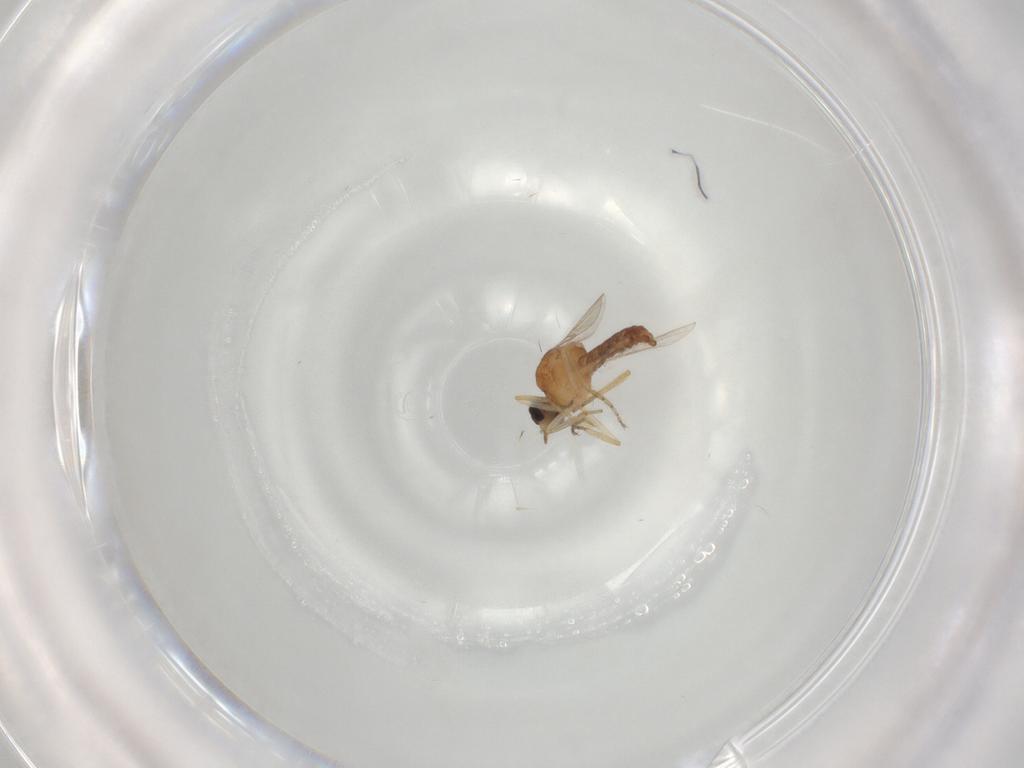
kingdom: Animalia
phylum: Arthropoda
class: Insecta
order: Diptera
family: Ceratopogonidae
